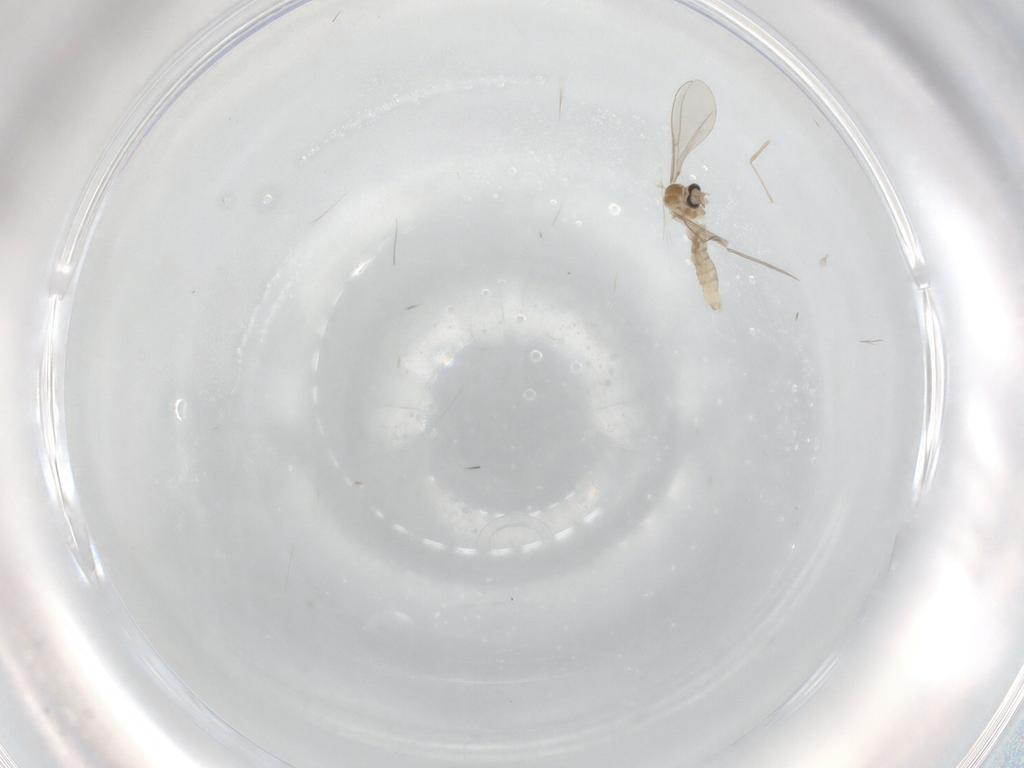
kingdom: Animalia
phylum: Arthropoda
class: Insecta
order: Diptera
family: Cecidomyiidae
